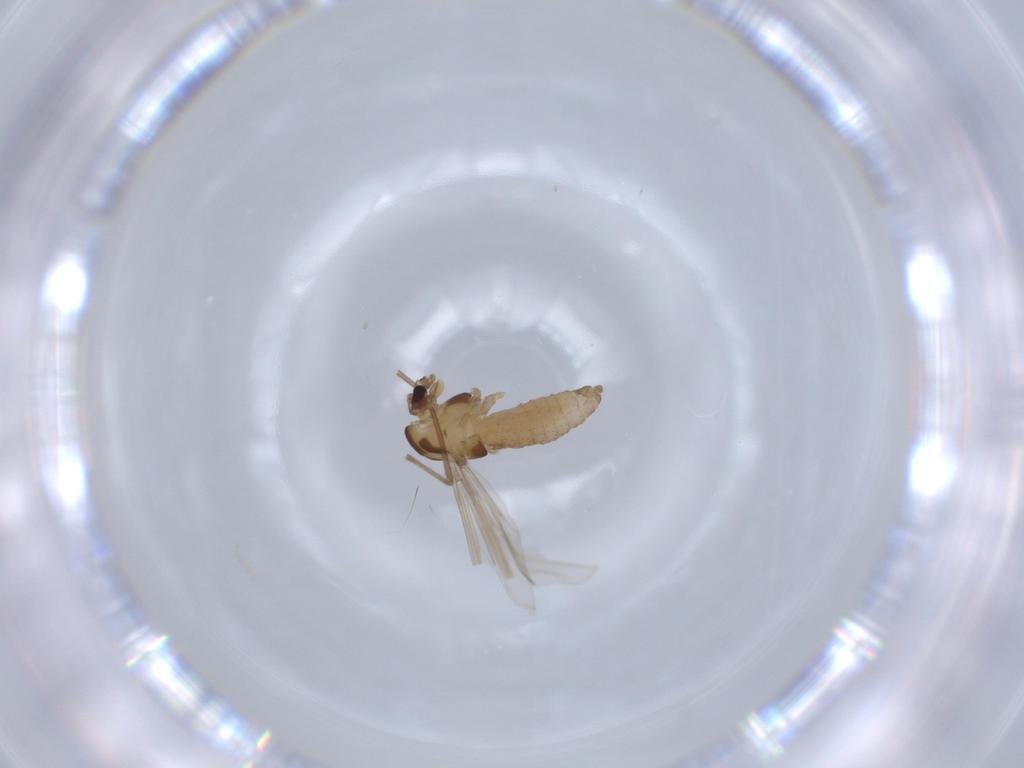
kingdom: Animalia
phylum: Arthropoda
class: Insecta
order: Diptera
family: Chironomidae
